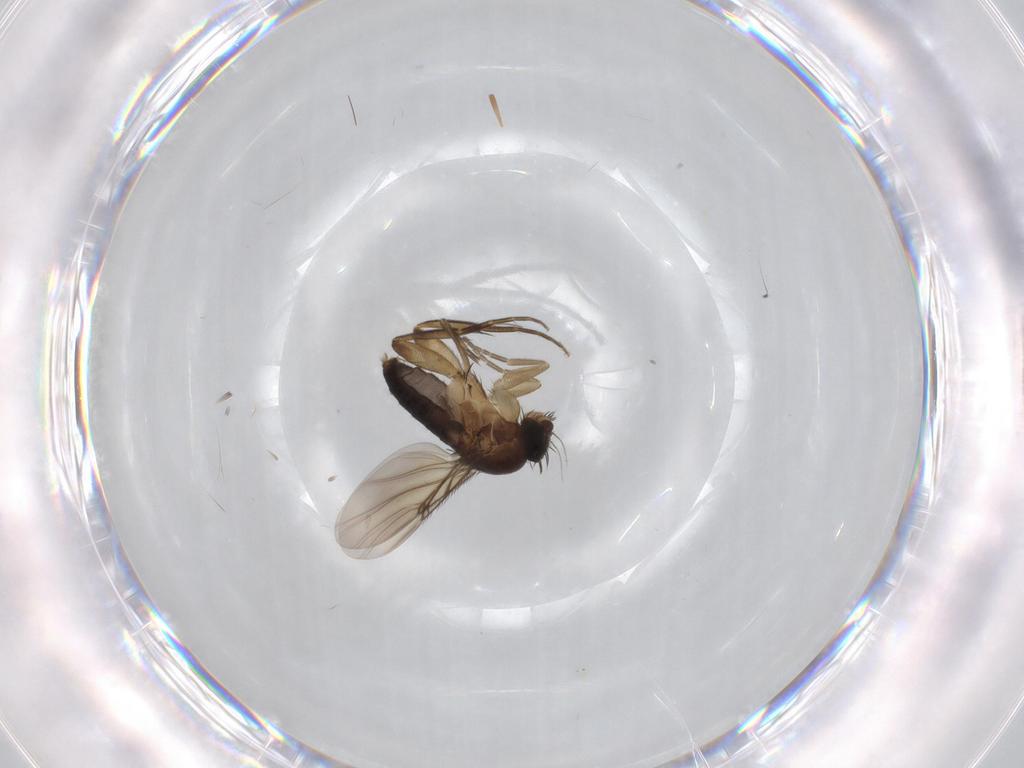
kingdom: Animalia
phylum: Arthropoda
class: Insecta
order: Diptera
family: Phoridae
